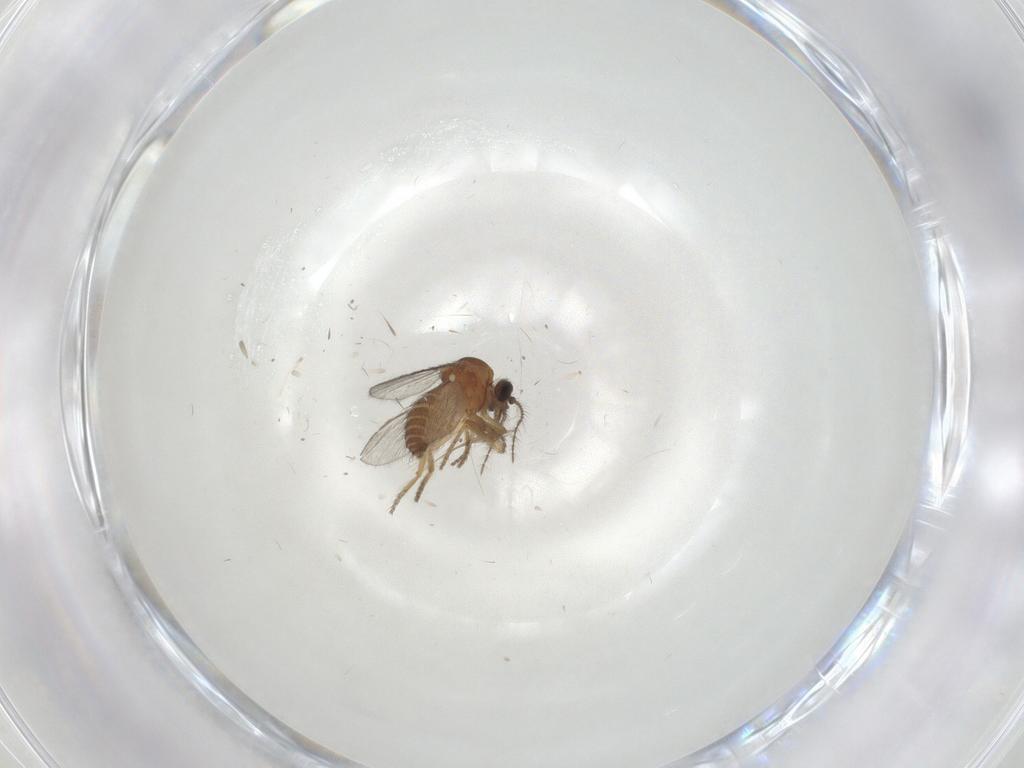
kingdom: Animalia
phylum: Arthropoda
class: Insecta
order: Diptera
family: Ceratopogonidae
